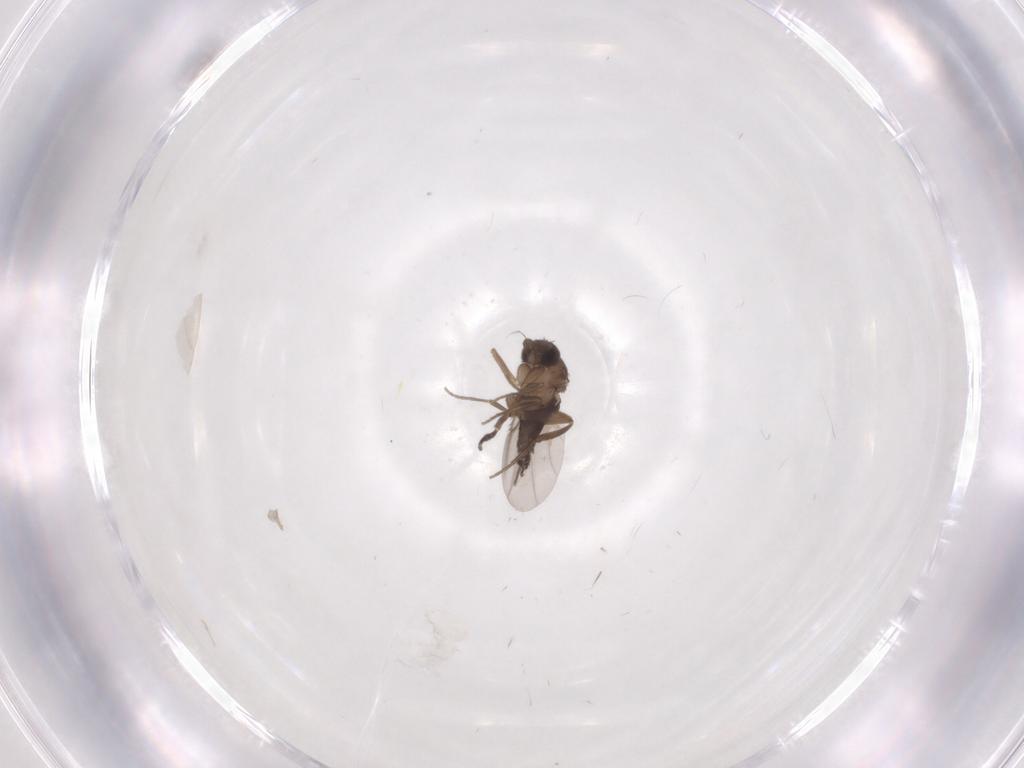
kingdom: Animalia
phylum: Arthropoda
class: Insecta
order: Diptera
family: Phoridae
